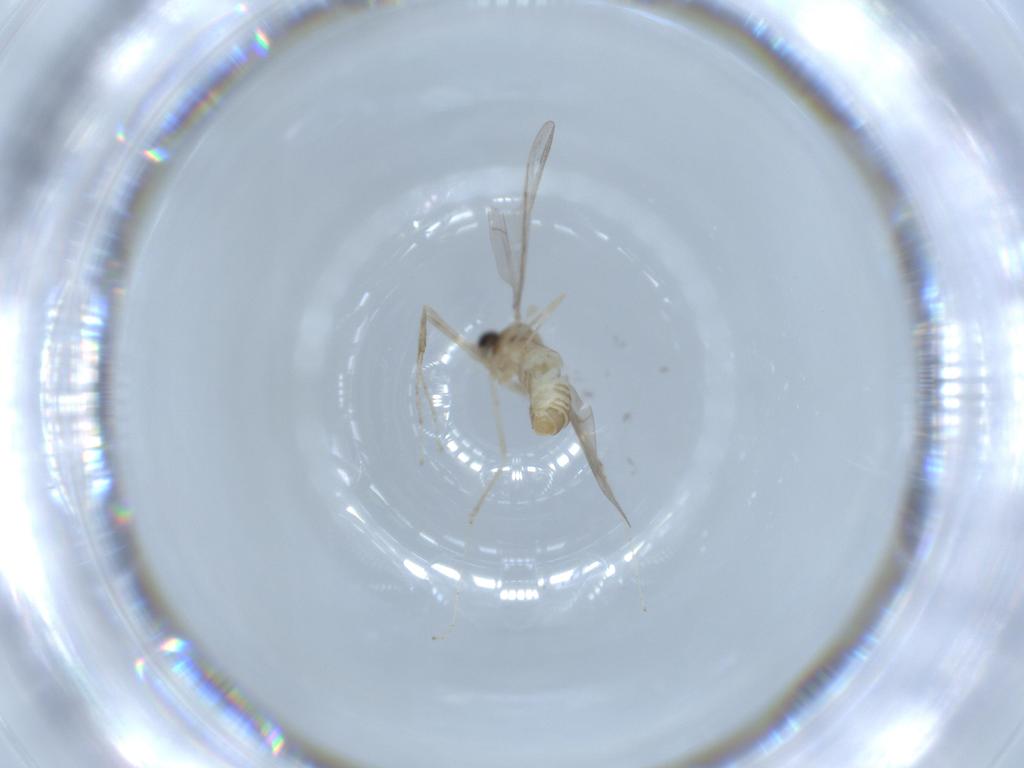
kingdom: Animalia
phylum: Arthropoda
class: Insecta
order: Diptera
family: Cecidomyiidae
